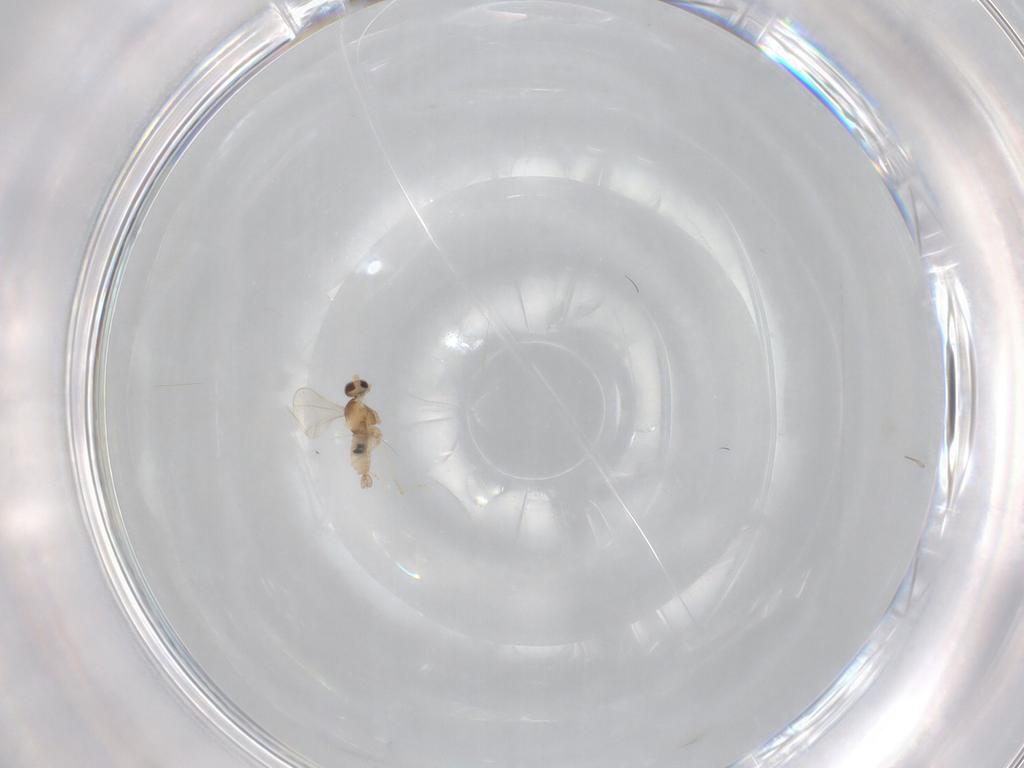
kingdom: Animalia
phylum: Arthropoda
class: Insecta
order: Diptera
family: Cecidomyiidae
